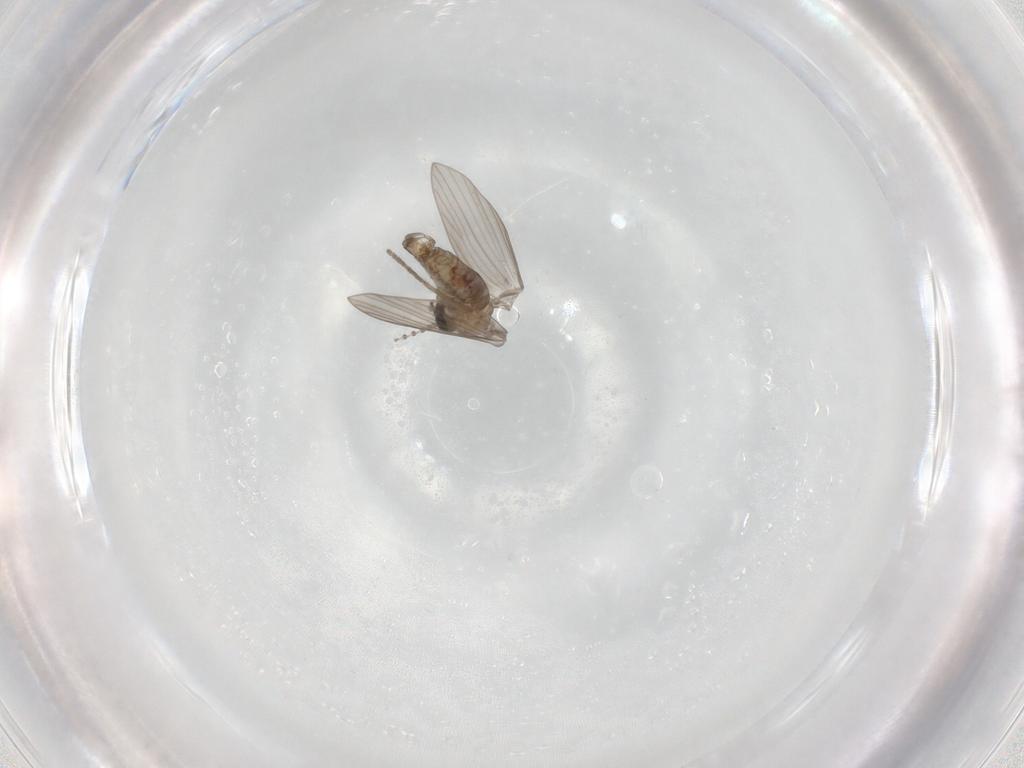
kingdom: Animalia
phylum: Arthropoda
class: Insecta
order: Diptera
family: Psychodidae
